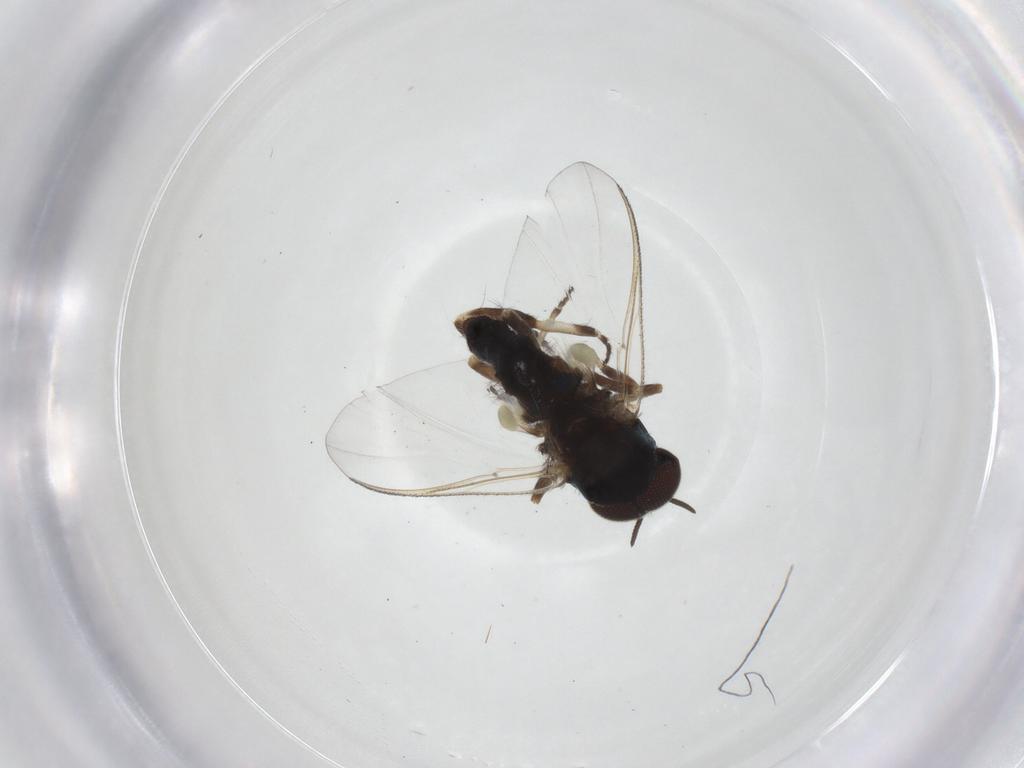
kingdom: Animalia
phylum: Arthropoda
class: Insecta
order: Diptera
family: Simuliidae
